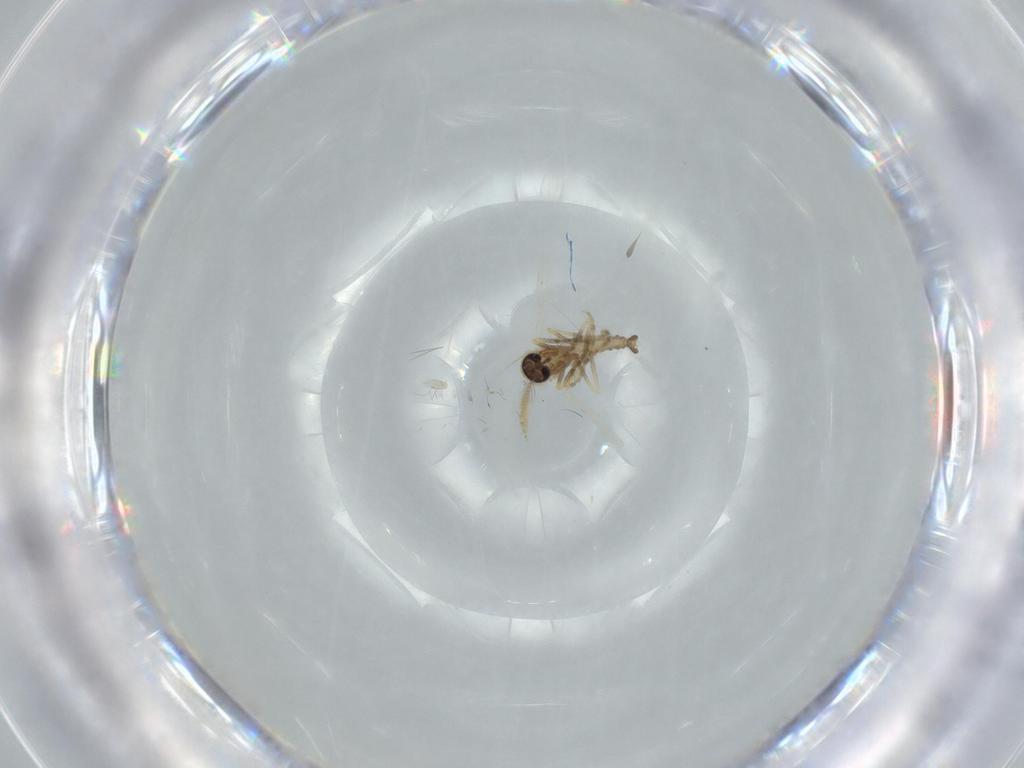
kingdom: Animalia
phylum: Arthropoda
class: Insecta
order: Diptera
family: Ceratopogonidae
